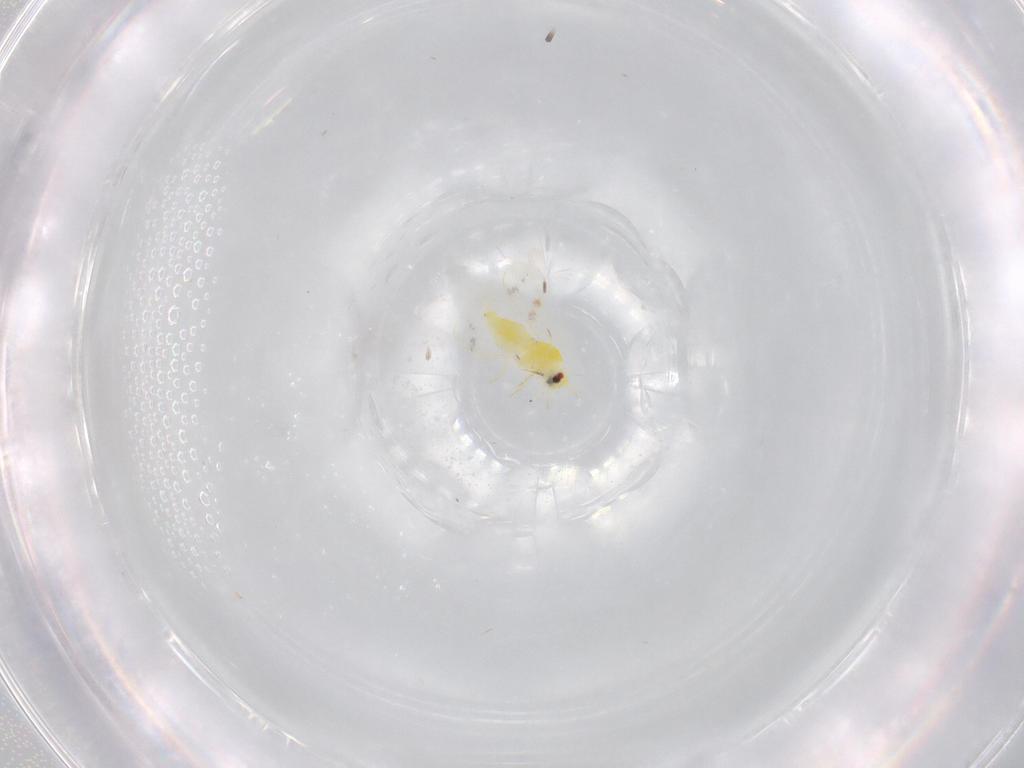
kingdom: Animalia
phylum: Arthropoda
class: Insecta
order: Hemiptera
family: Aleyrodidae
